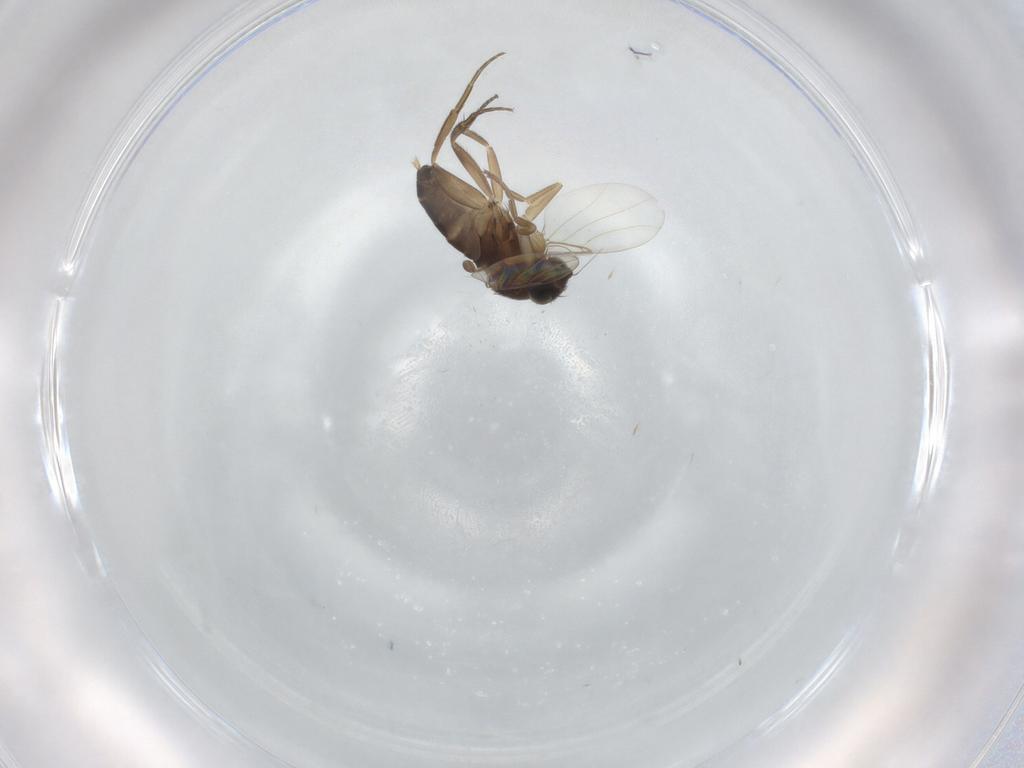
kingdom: Animalia
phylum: Arthropoda
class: Insecta
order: Diptera
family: Phoridae
